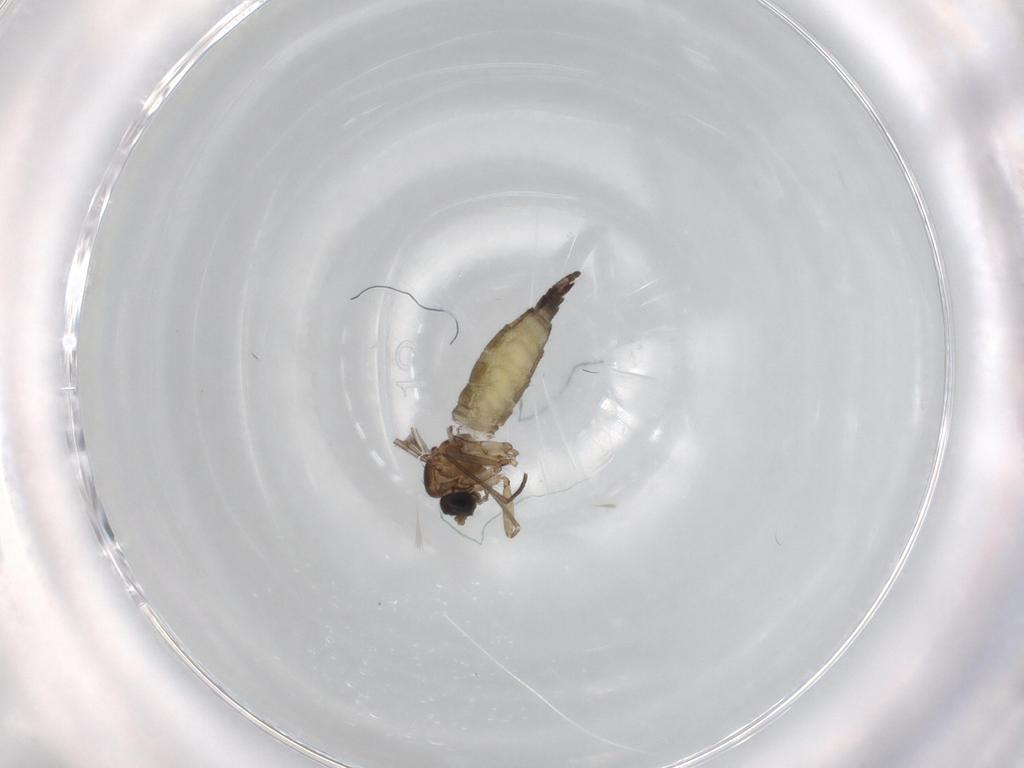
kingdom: Animalia
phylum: Arthropoda
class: Insecta
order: Diptera
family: Sciaridae
